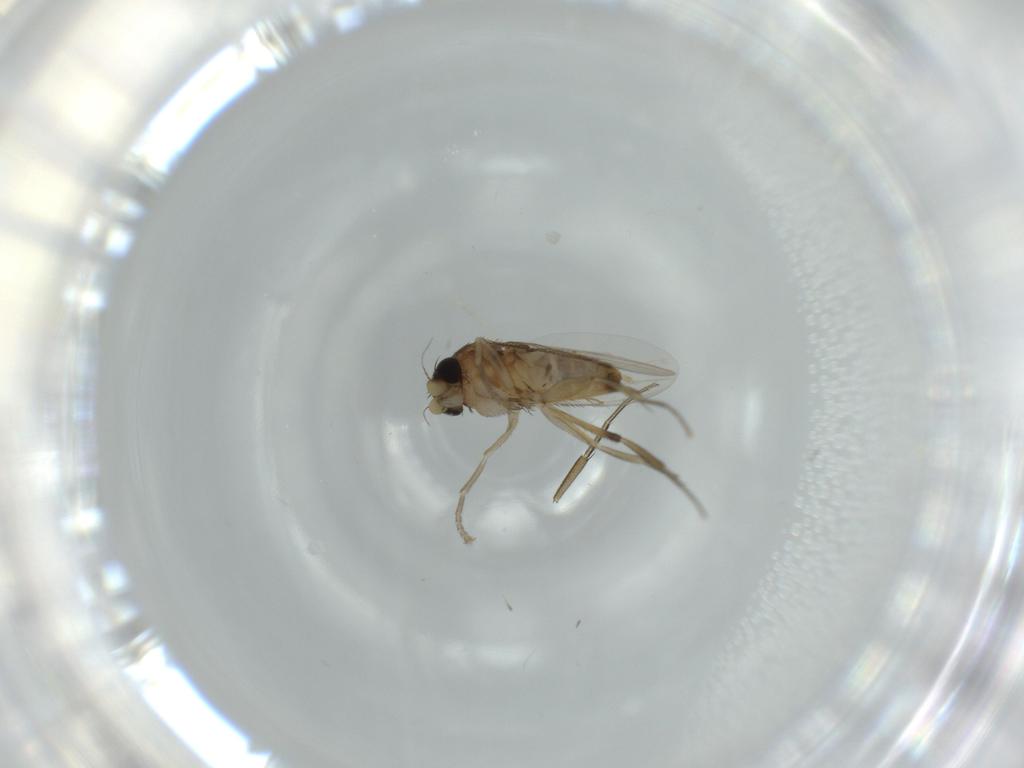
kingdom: Animalia
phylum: Arthropoda
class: Insecta
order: Diptera
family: Phoridae
